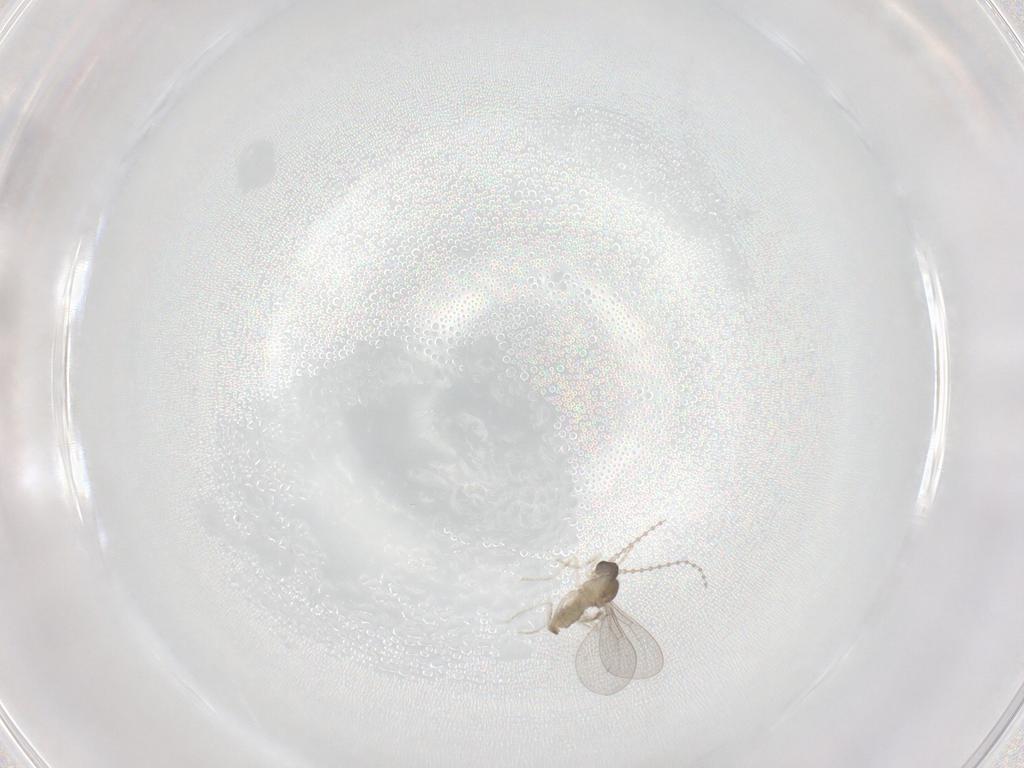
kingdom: Animalia
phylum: Arthropoda
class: Insecta
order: Diptera
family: Cecidomyiidae
